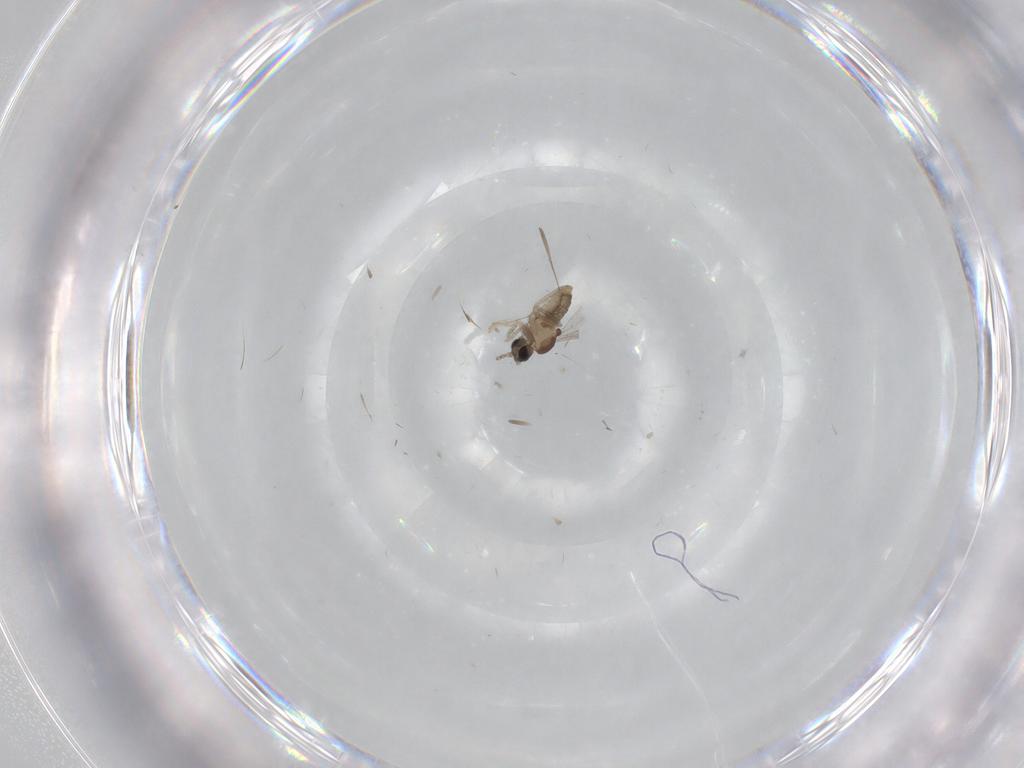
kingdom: Animalia
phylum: Arthropoda
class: Insecta
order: Diptera
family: Cecidomyiidae
